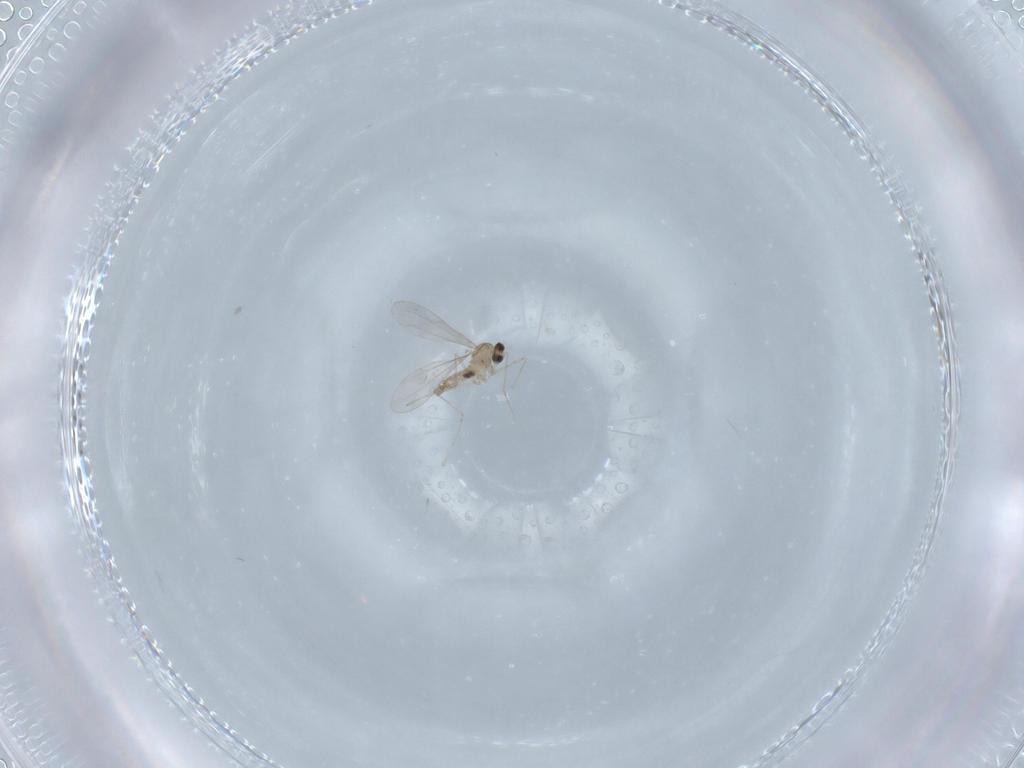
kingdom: Animalia
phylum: Arthropoda
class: Insecta
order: Diptera
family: Cecidomyiidae
